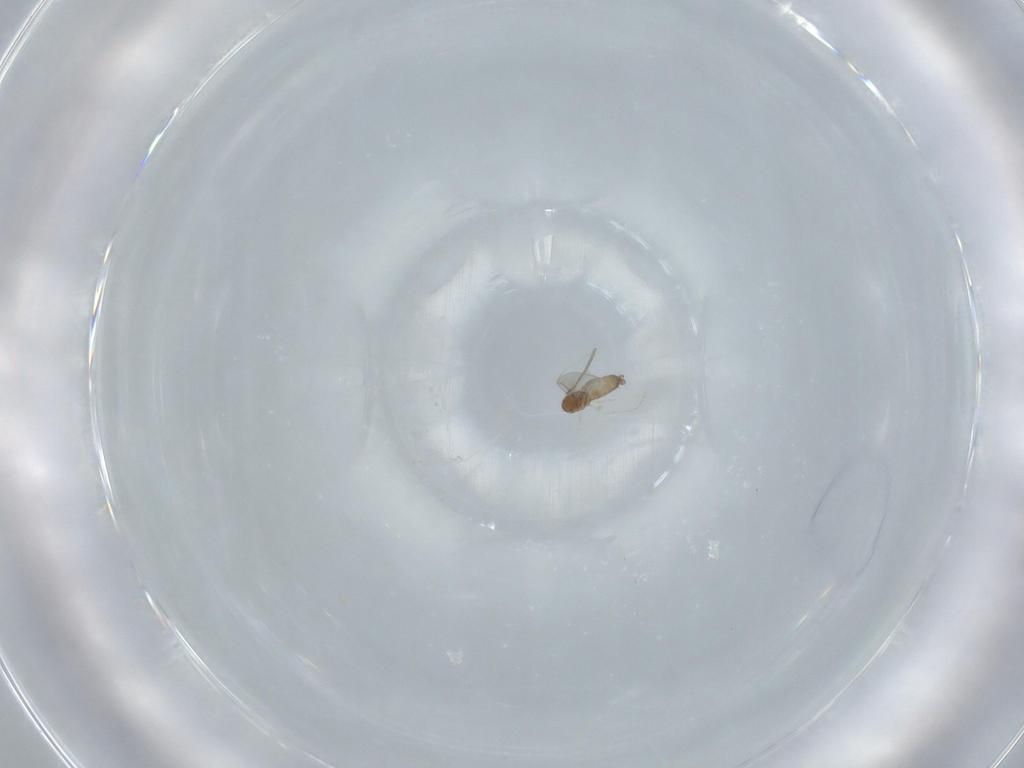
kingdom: Animalia
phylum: Arthropoda
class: Insecta
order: Diptera
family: Cecidomyiidae
